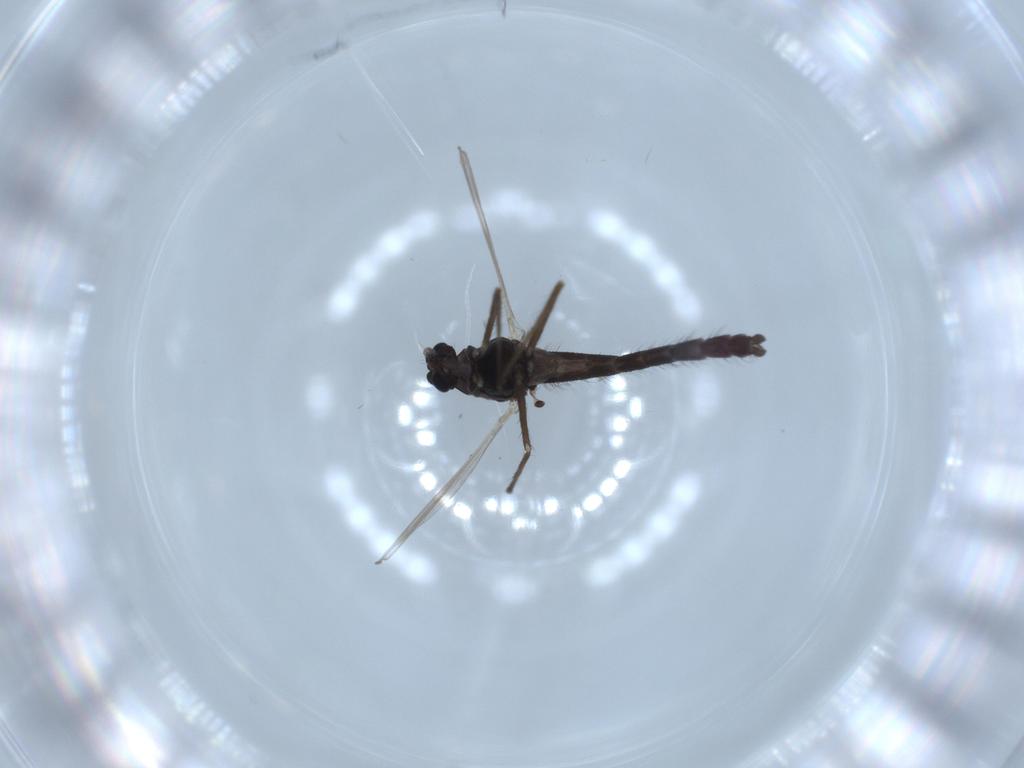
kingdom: Animalia
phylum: Arthropoda
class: Insecta
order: Diptera
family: Chironomidae
